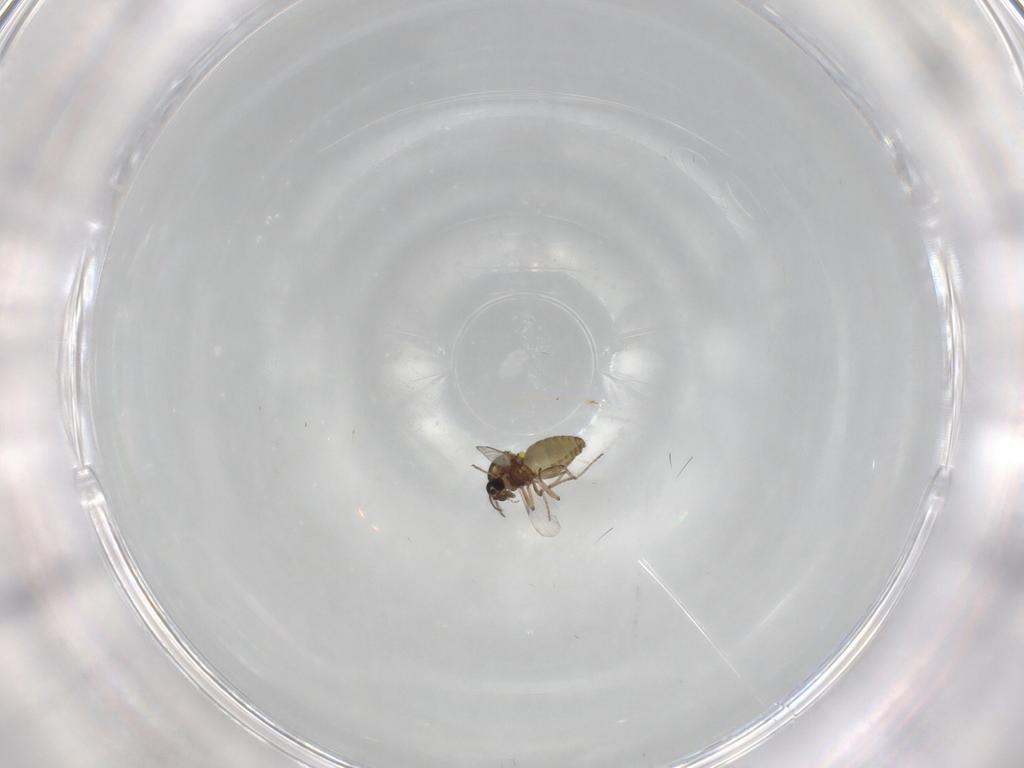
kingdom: Animalia
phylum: Arthropoda
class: Insecta
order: Diptera
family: Ceratopogonidae
